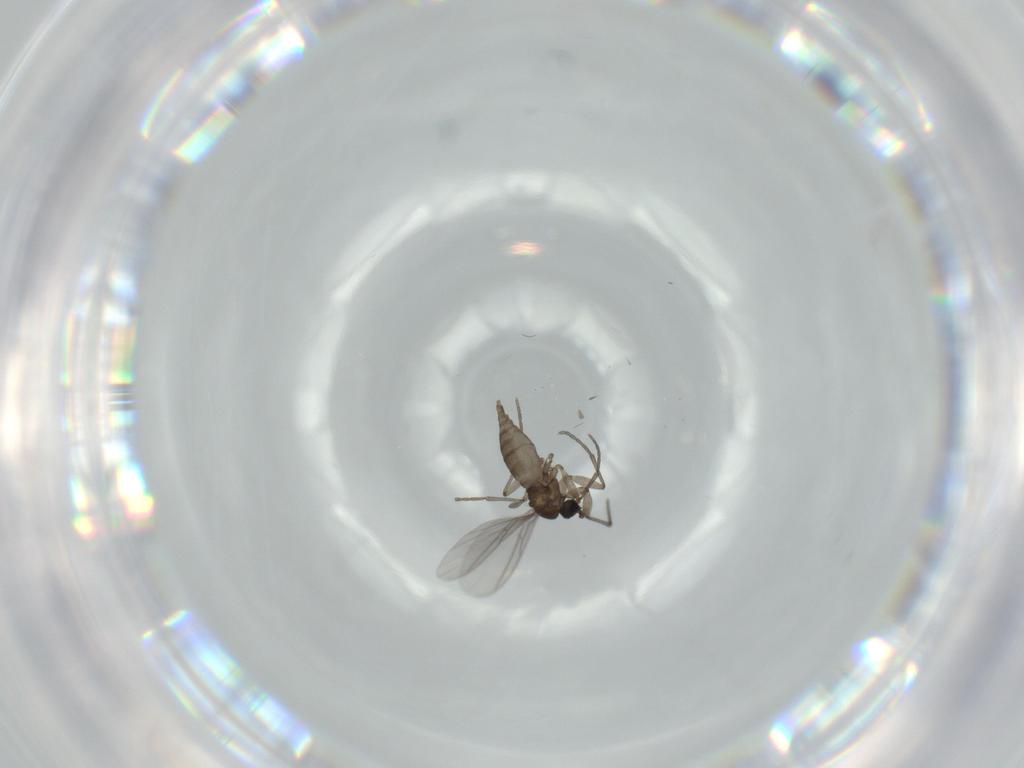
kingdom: Animalia
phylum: Arthropoda
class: Insecta
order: Diptera
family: Sciaridae
